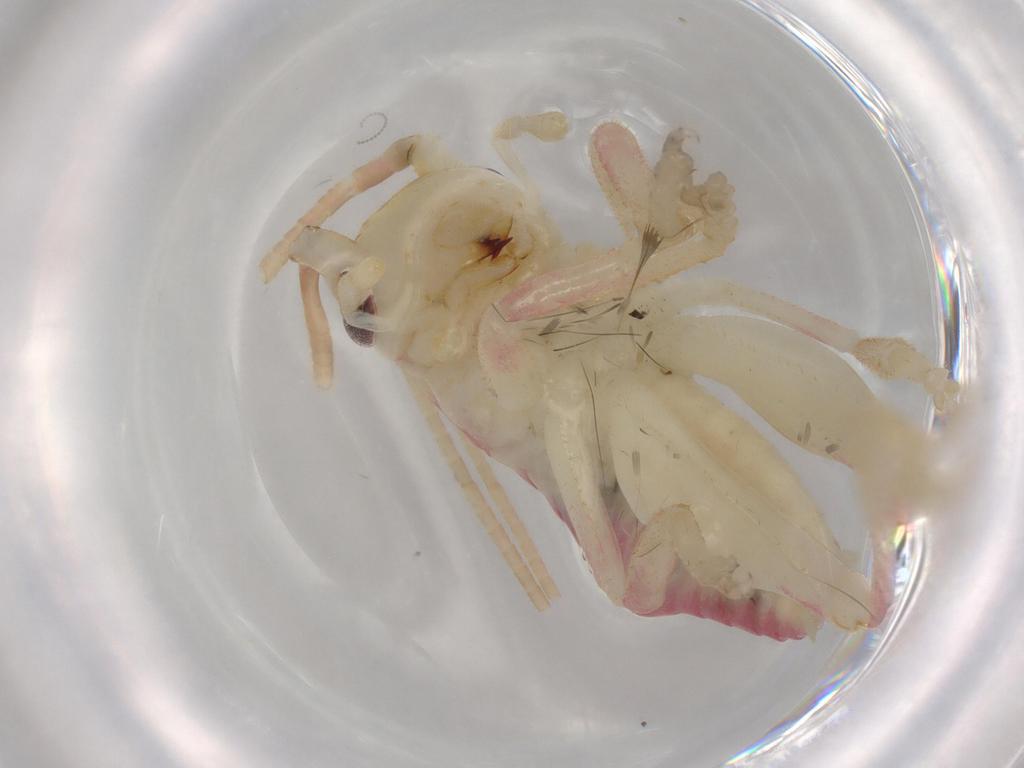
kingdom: Animalia
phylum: Arthropoda
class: Insecta
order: Orthoptera
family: Gryllacrididae
